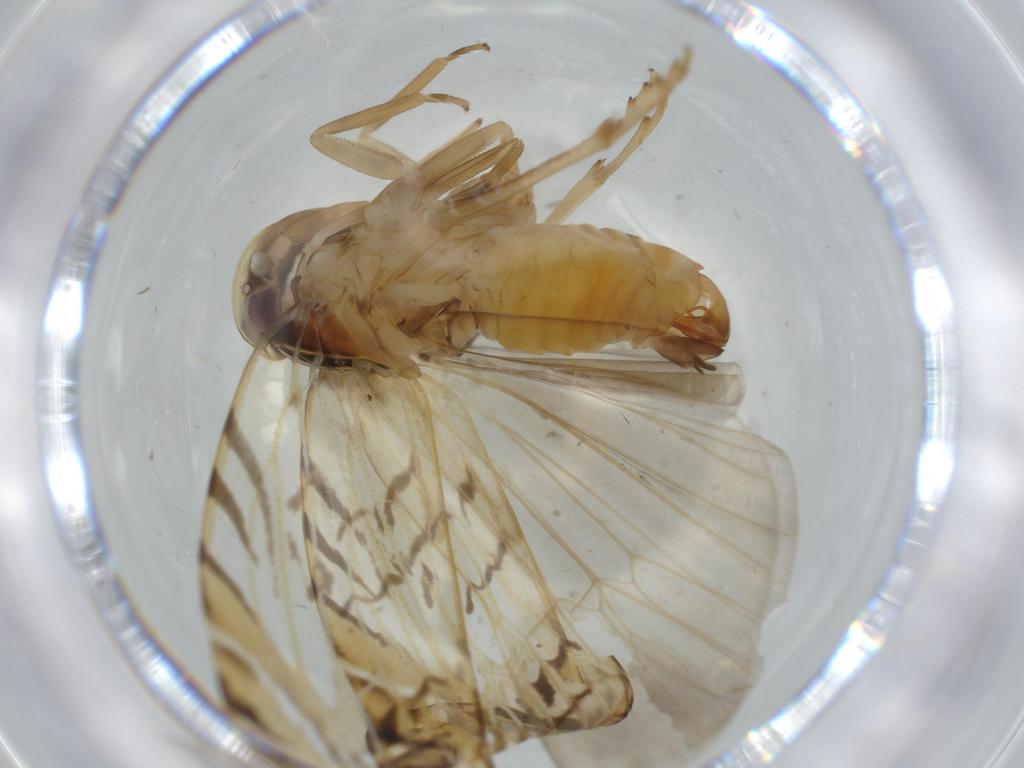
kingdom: Animalia
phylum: Arthropoda
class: Insecta
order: Hemiptera
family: Cixiidae
